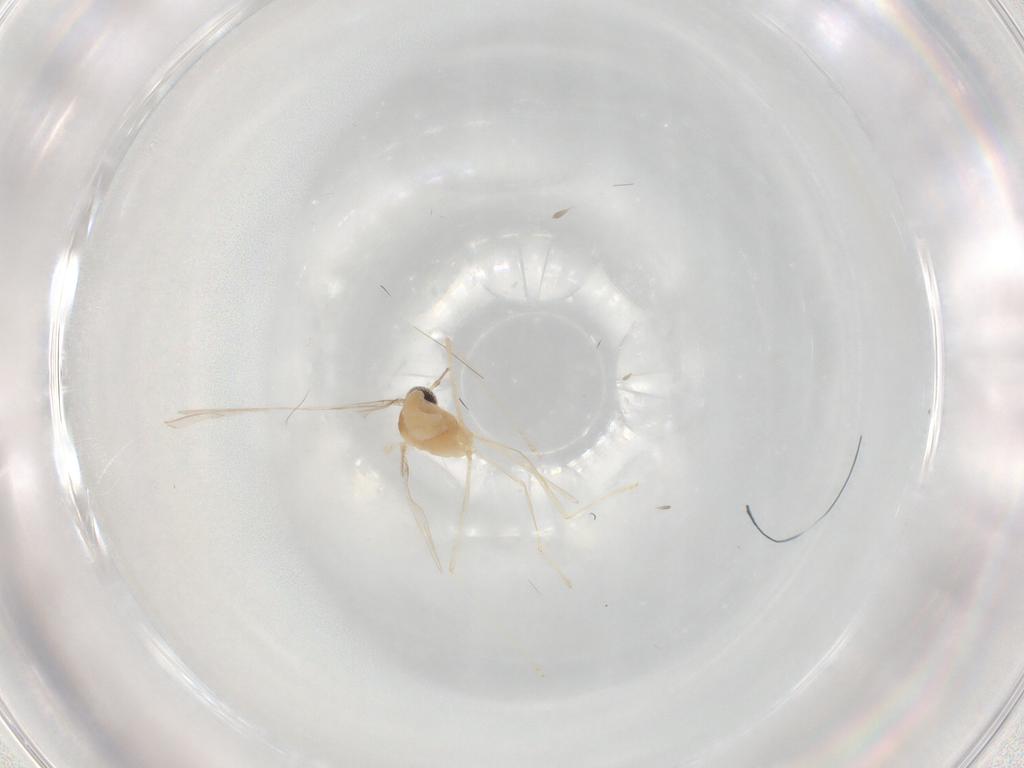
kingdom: Animalia
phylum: Arthropoda
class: Insecta
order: Diptera
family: Cecidomyiidae
